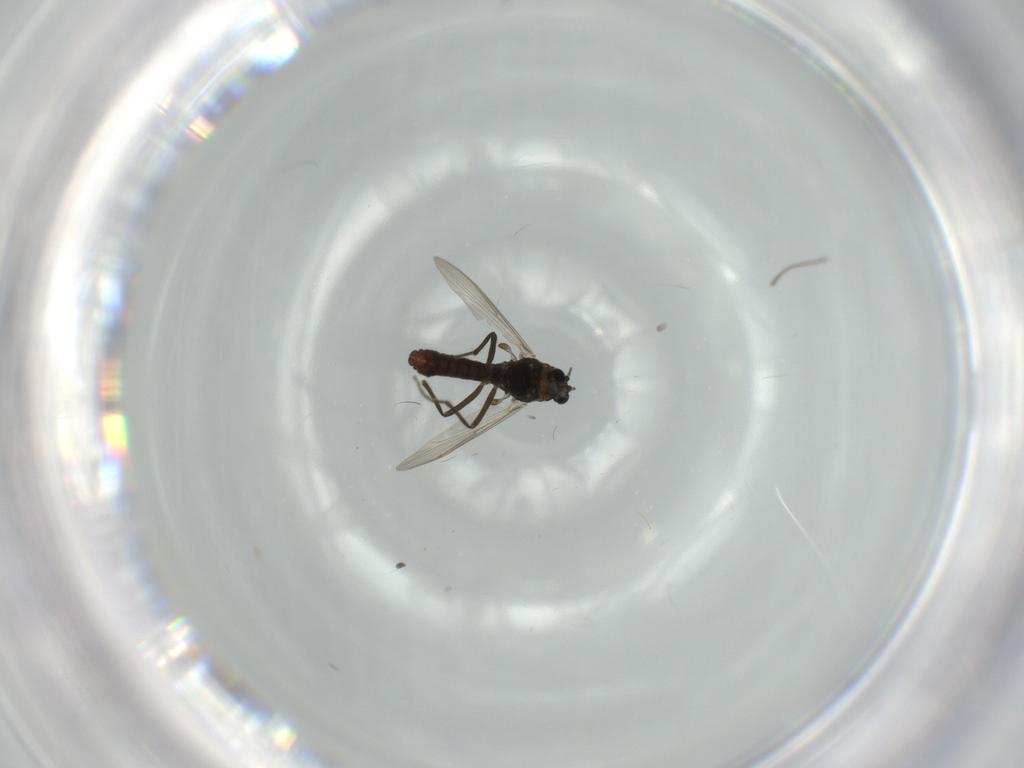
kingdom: Animalia
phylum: Arthropoda
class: Insecta
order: Diptera
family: Chironomidae
